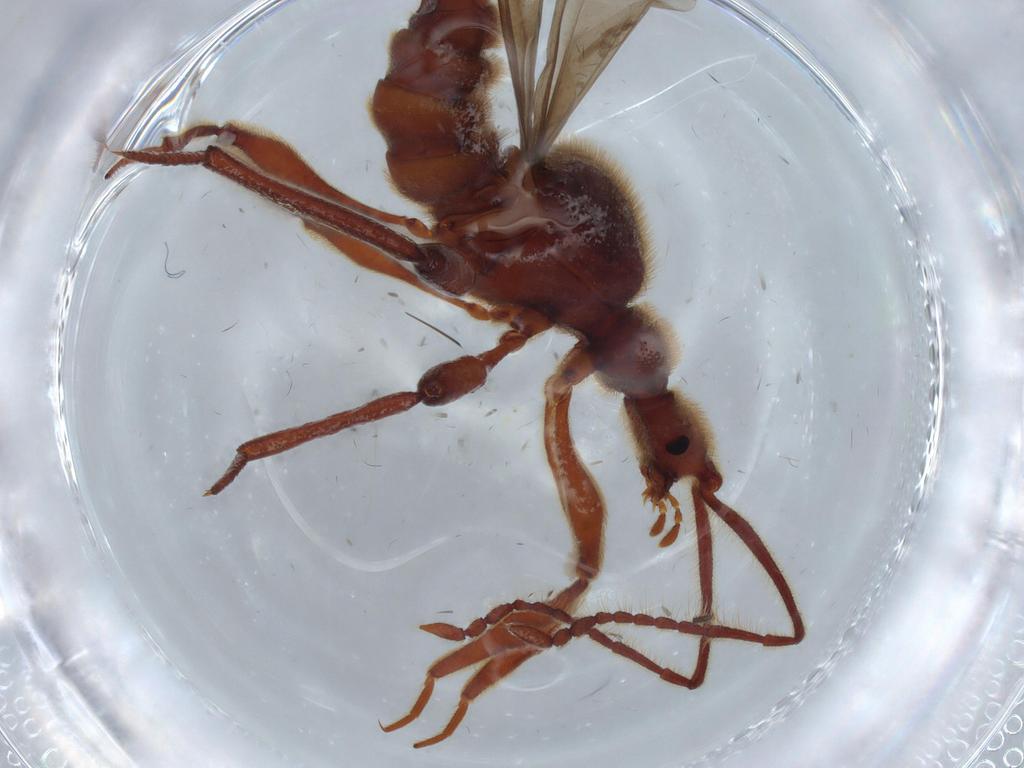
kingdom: Animalia
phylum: Arthropoda
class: Insecta
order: Coleoptera
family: Staphylinidae
